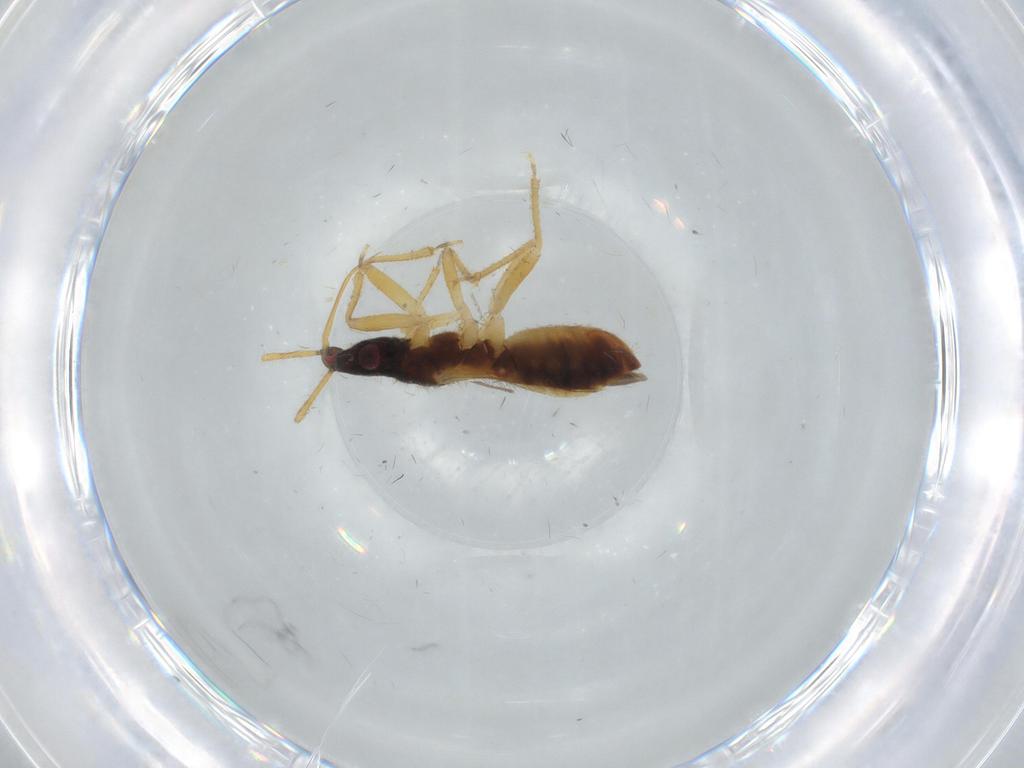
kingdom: Animalia
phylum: Arthropoda
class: Insecta
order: Hemiptera
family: Lasiochilidae
